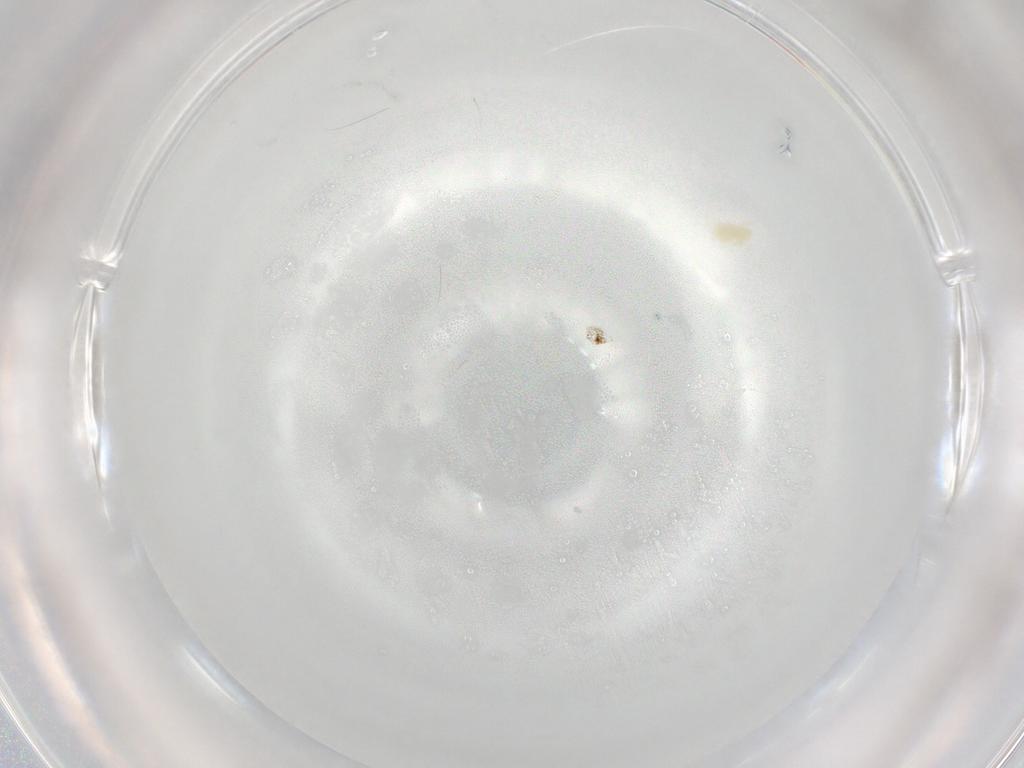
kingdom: Animalia
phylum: Arthropoda
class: Arachnida
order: Trombidiformes
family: Eupodidae
